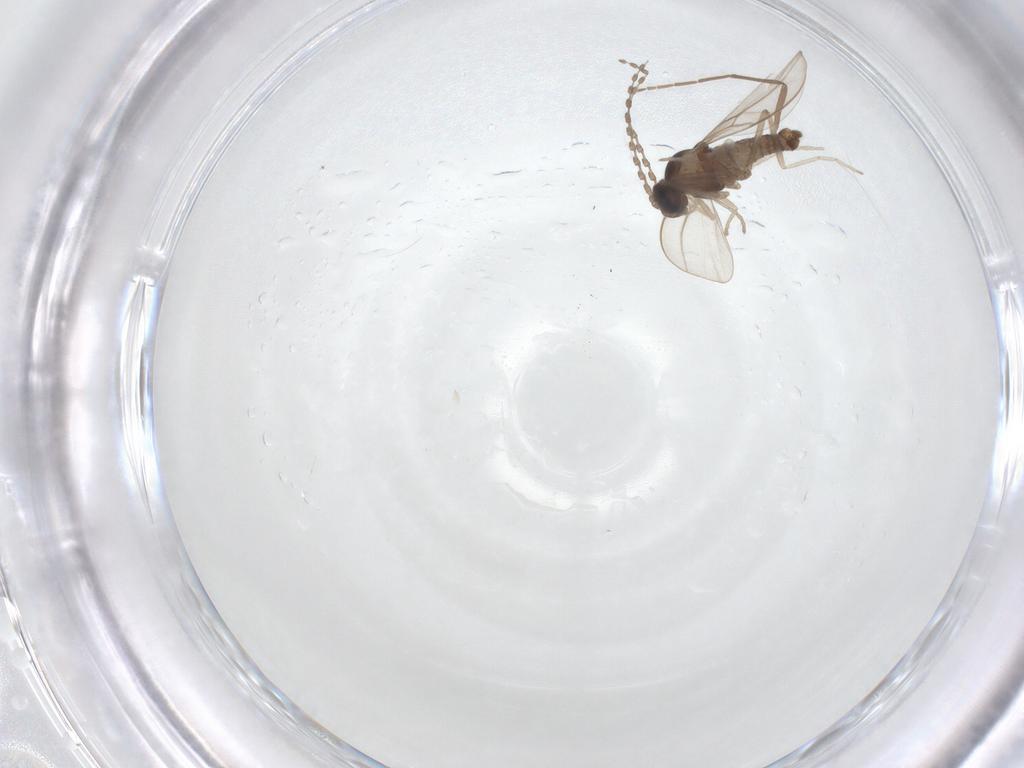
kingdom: Animalia
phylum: Arthropoda
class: Insecta
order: Diptera
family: Cecidomyiidae
